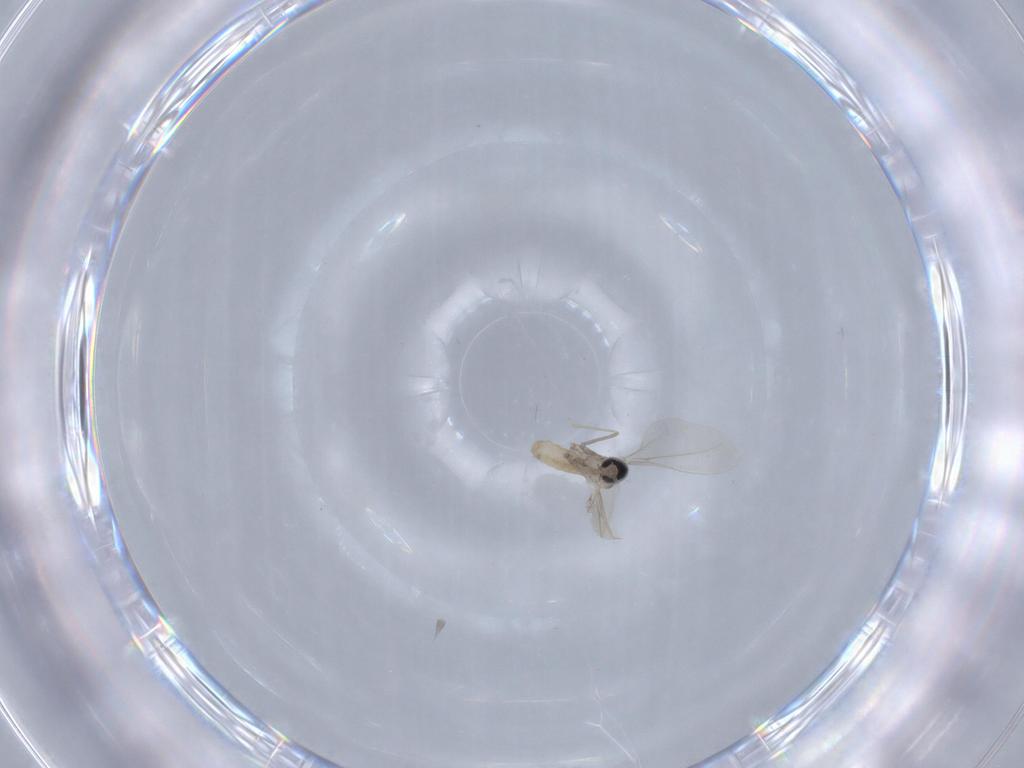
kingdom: Animalia
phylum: Arthropoda
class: Insecta
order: Diptera
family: Cecidomyiidae
